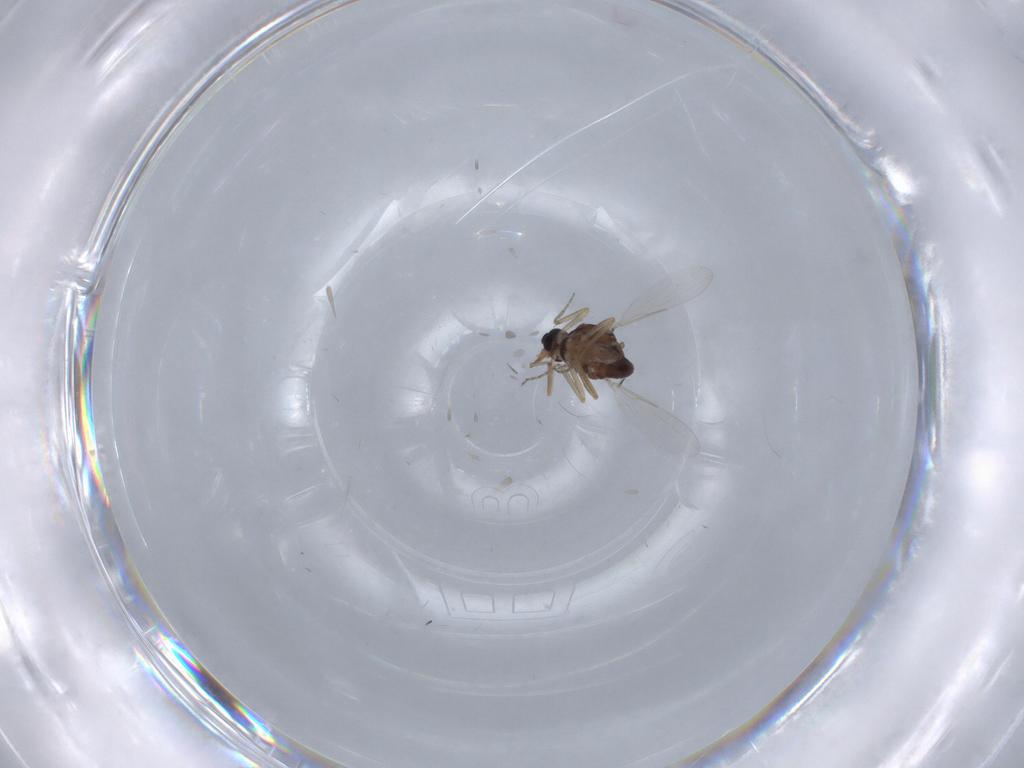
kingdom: Animalia
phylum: Arthropoda
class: Insecta
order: Diptera
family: Ceratopogonidae
